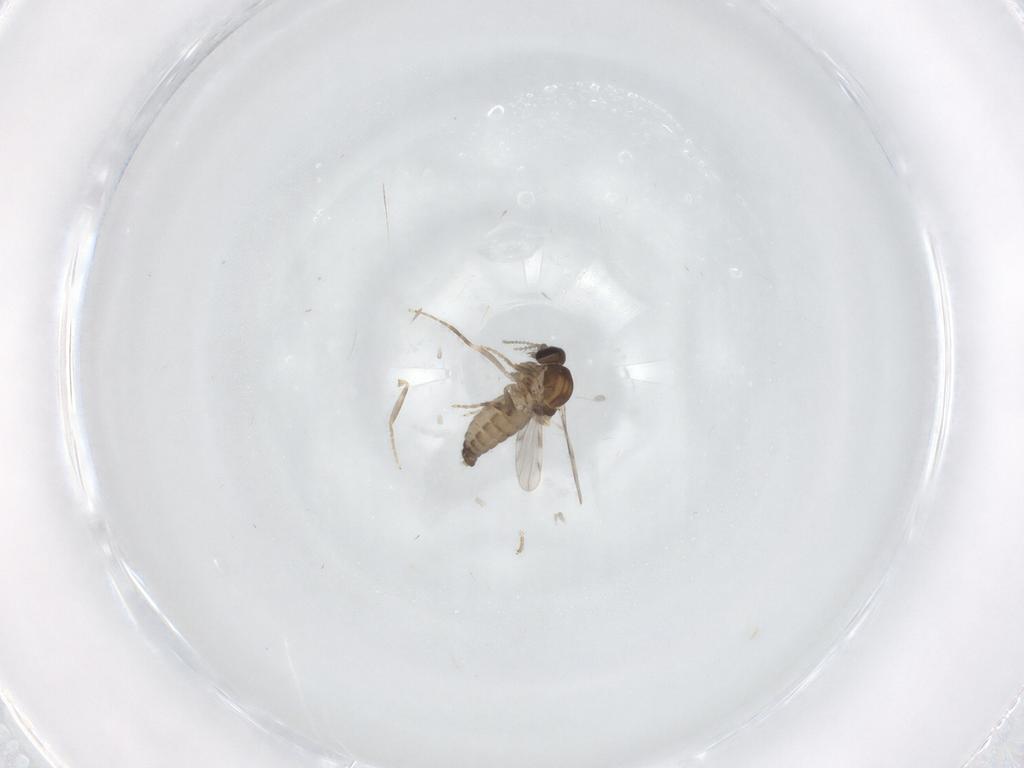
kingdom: Animalia
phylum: Arthropoda
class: Insecta
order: Diptera
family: Ceratopogonidae
